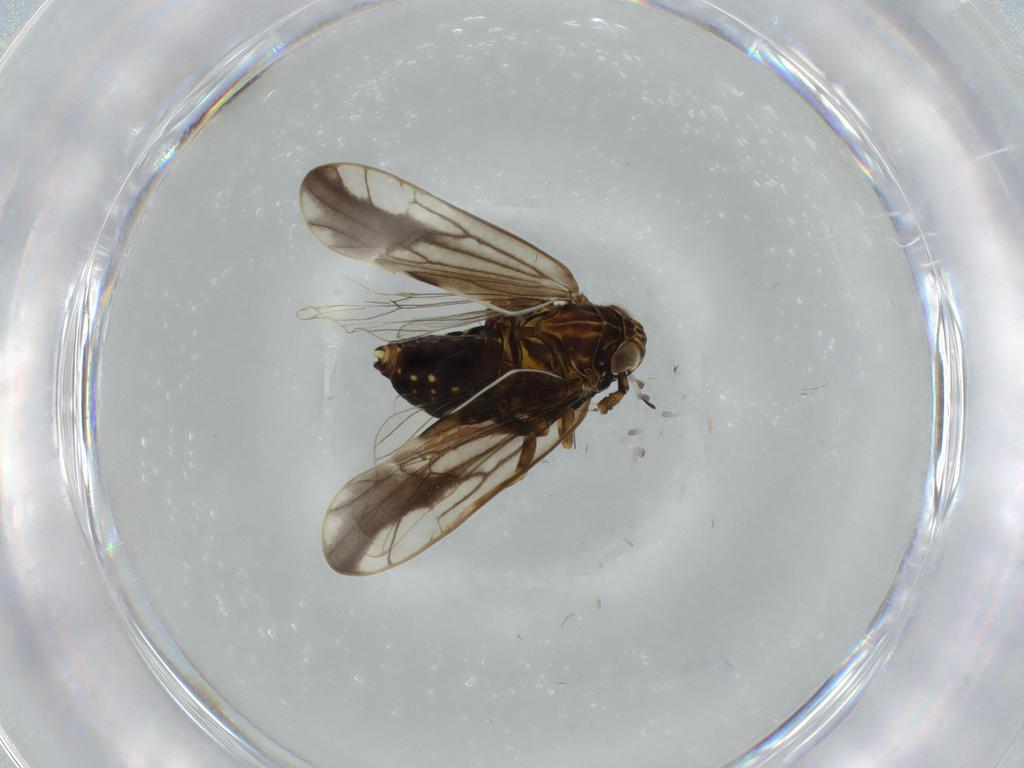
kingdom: Animalia
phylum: Arthropoda
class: Insecta
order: Hemiptera
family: Delphacidae
